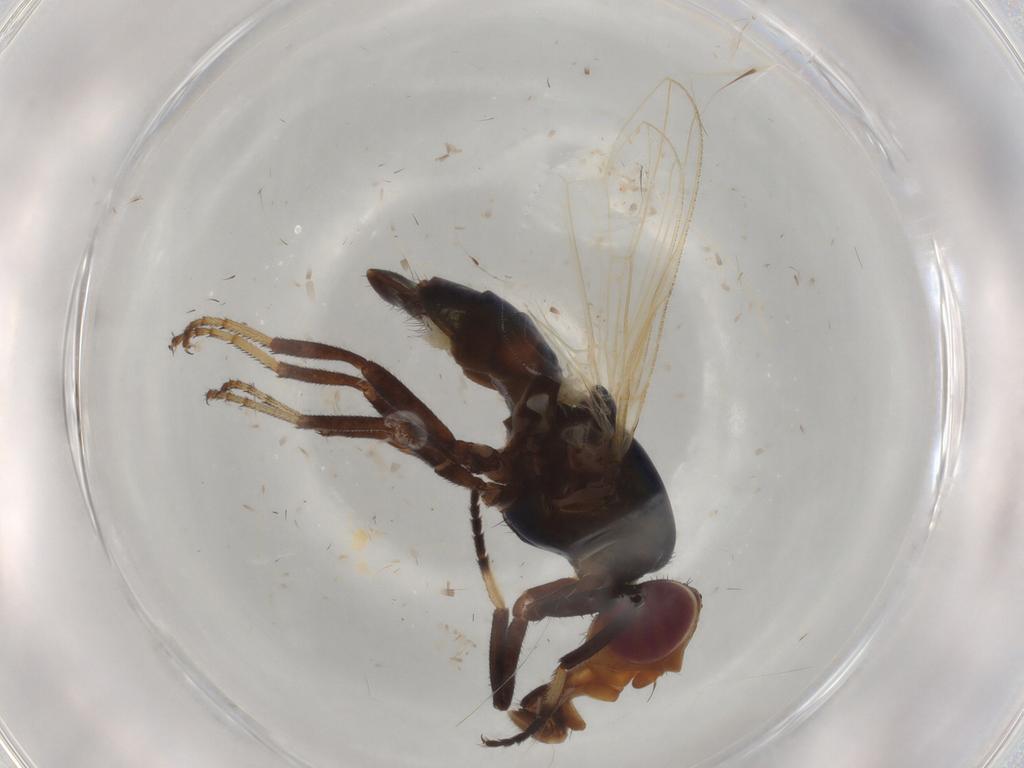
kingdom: Animalia
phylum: Arthropoda
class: Insecta
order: Diptera
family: Ulidiidae
